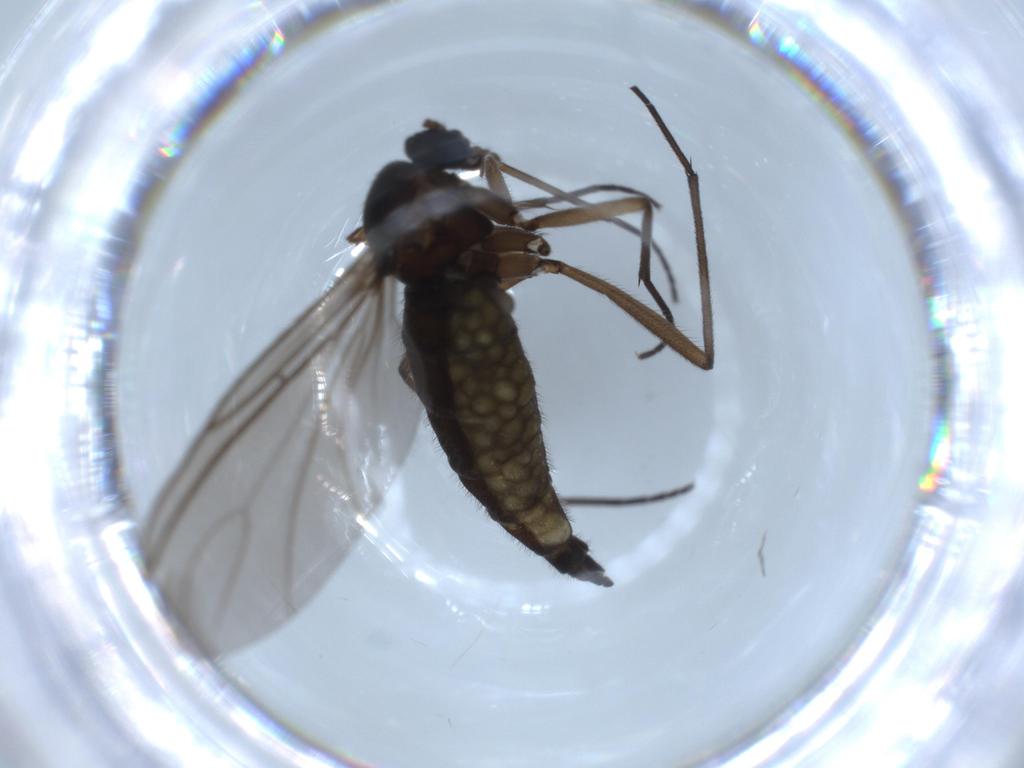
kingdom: Animalia
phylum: Arthropoda
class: Insecta
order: Diptera
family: Sciaridae
